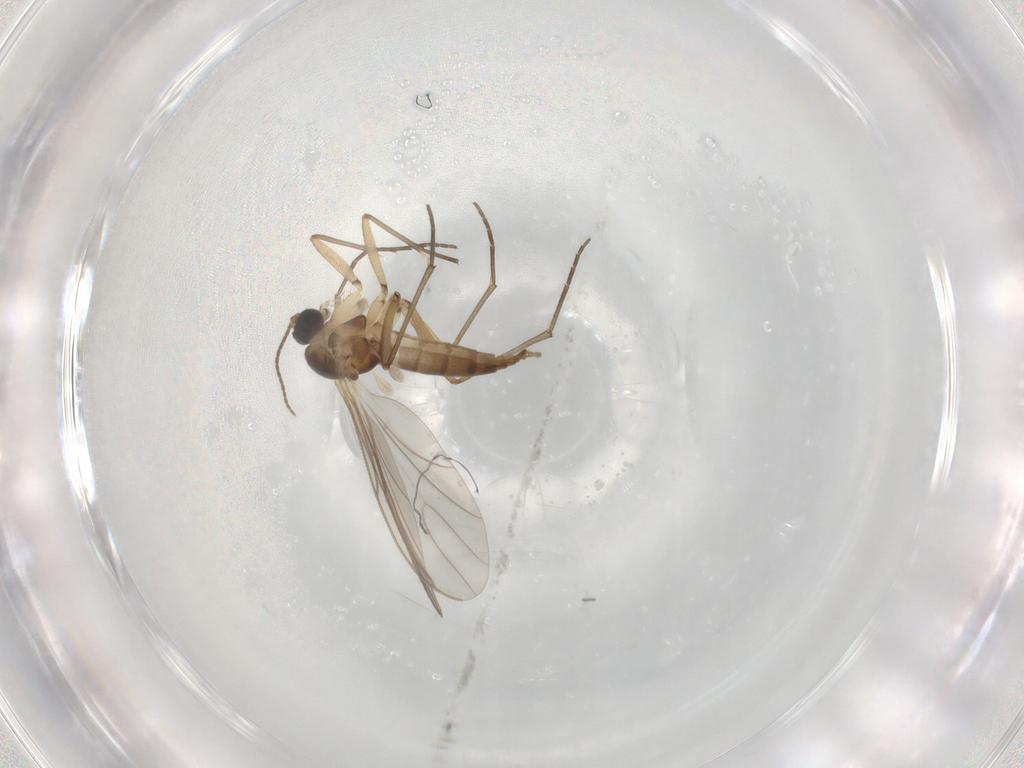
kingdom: Animalia
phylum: Arthropoda
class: Insecta
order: Diptera
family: Sciaridae
